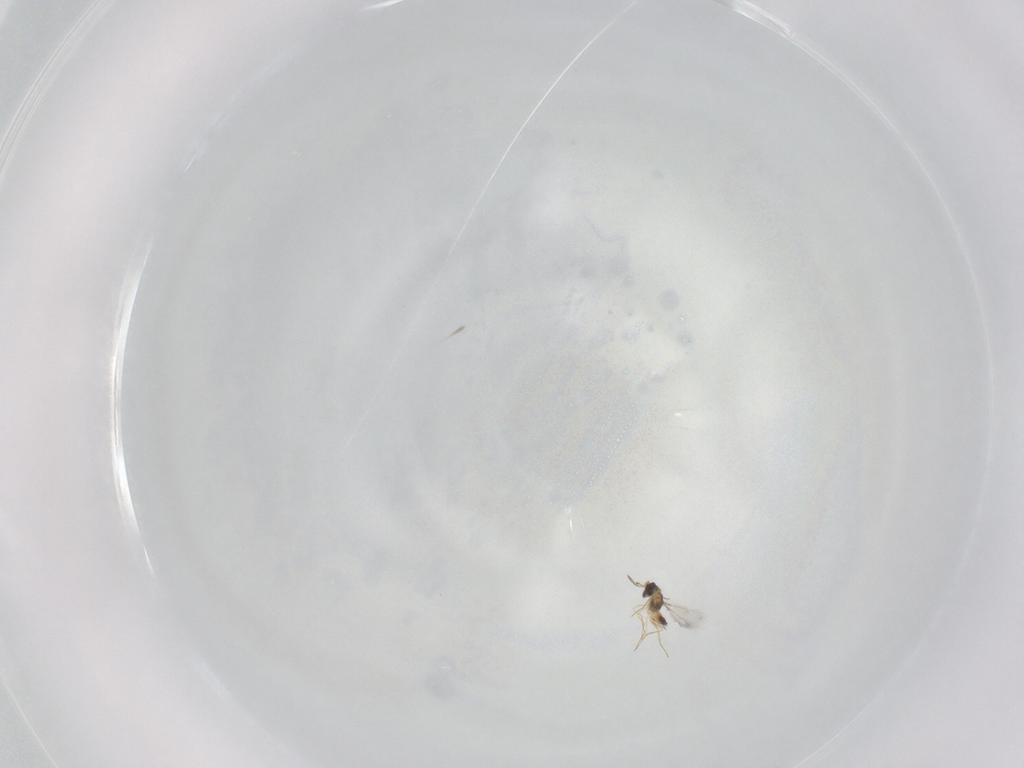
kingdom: Animalia
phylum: Arthropoda
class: Insecta
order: Hymenoptera
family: Mymaridae
